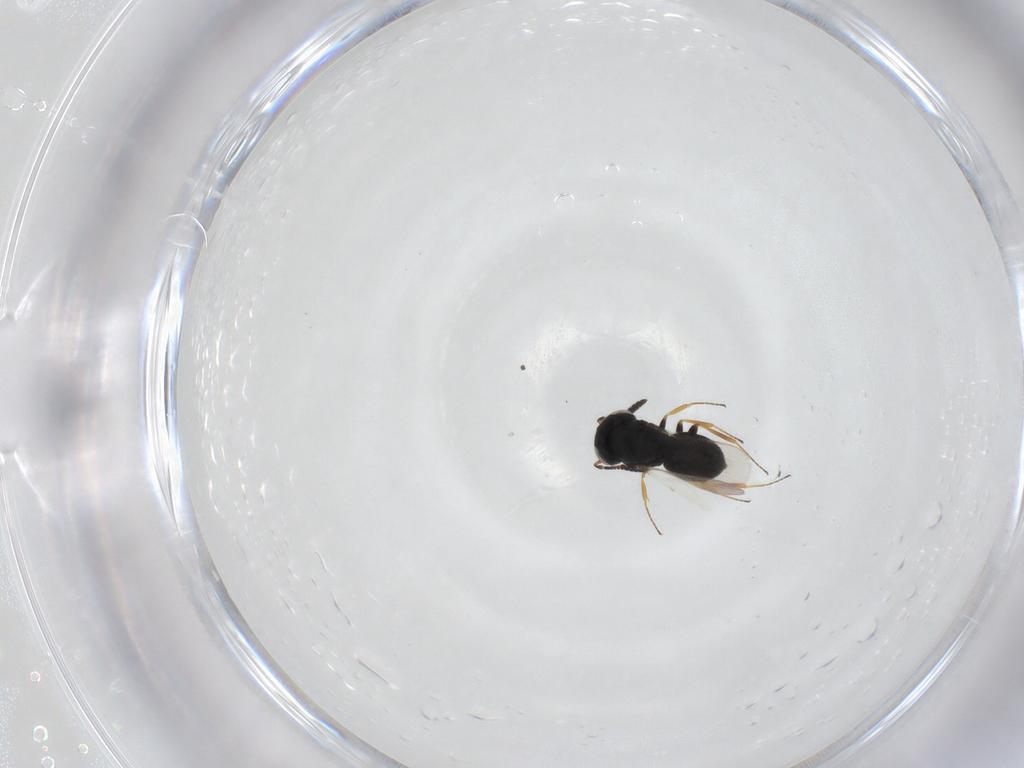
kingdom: Animalia
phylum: Arthropoda
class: Insecta
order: Hymenoptera
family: Scelionidae
